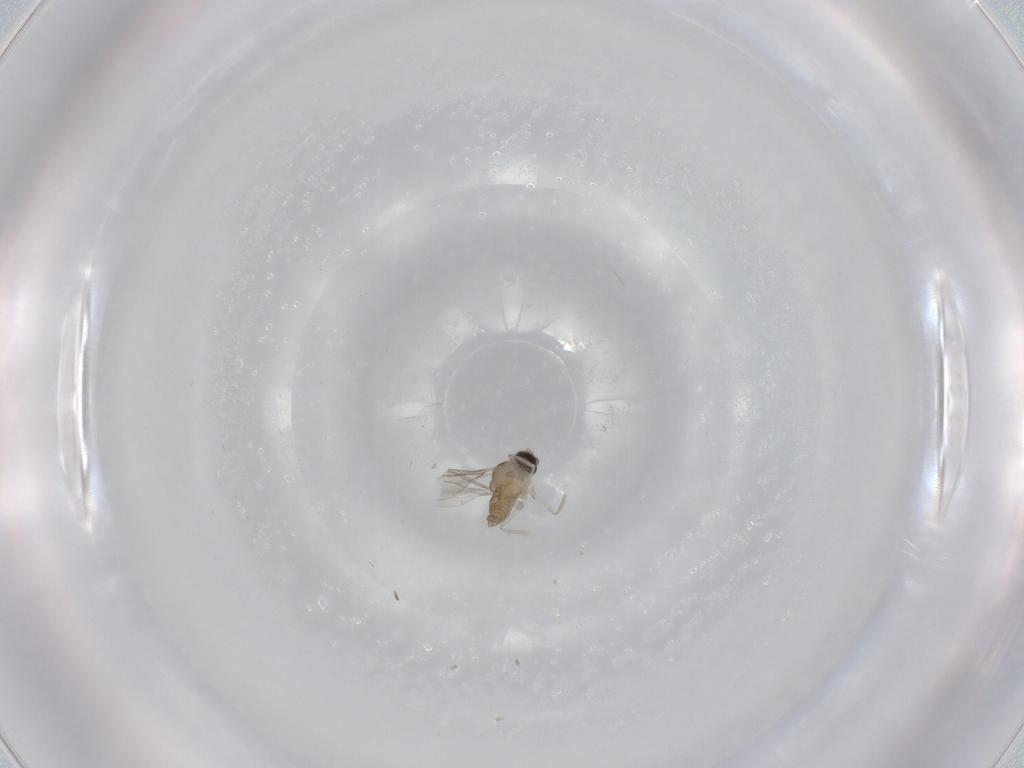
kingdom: Animalia
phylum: Arthropoda
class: Insecta
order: Diptera
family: Cecidomyiidae
